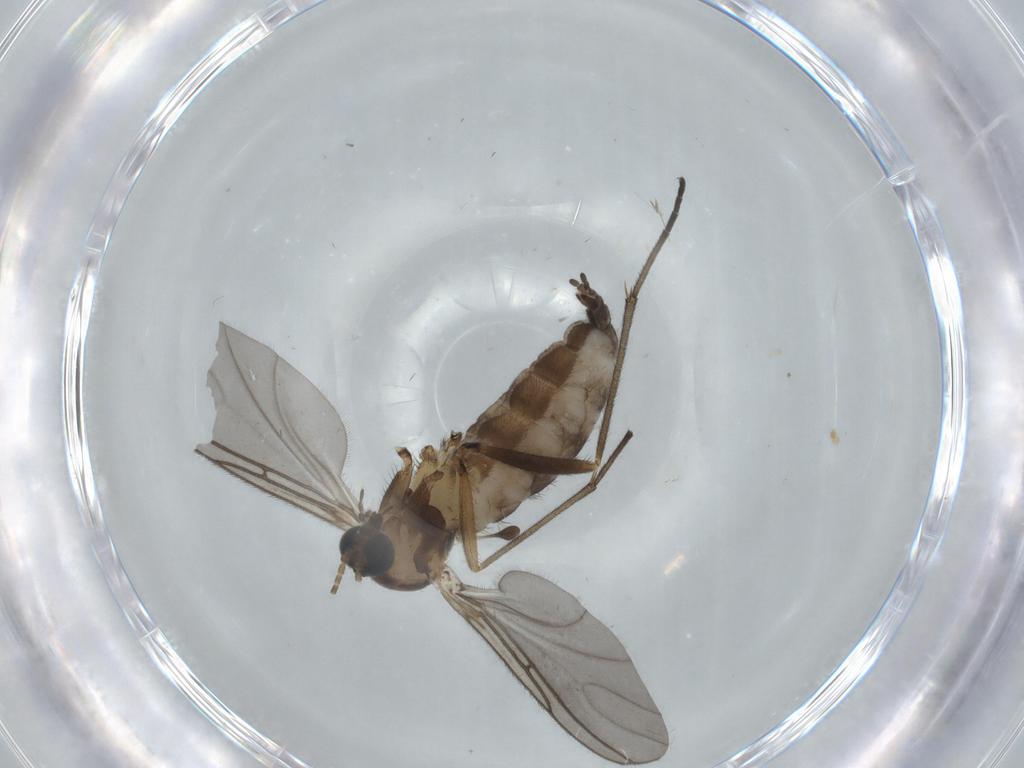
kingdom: Animalia
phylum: Arthropoda
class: Insecta
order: Diptera
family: Sciaridae
